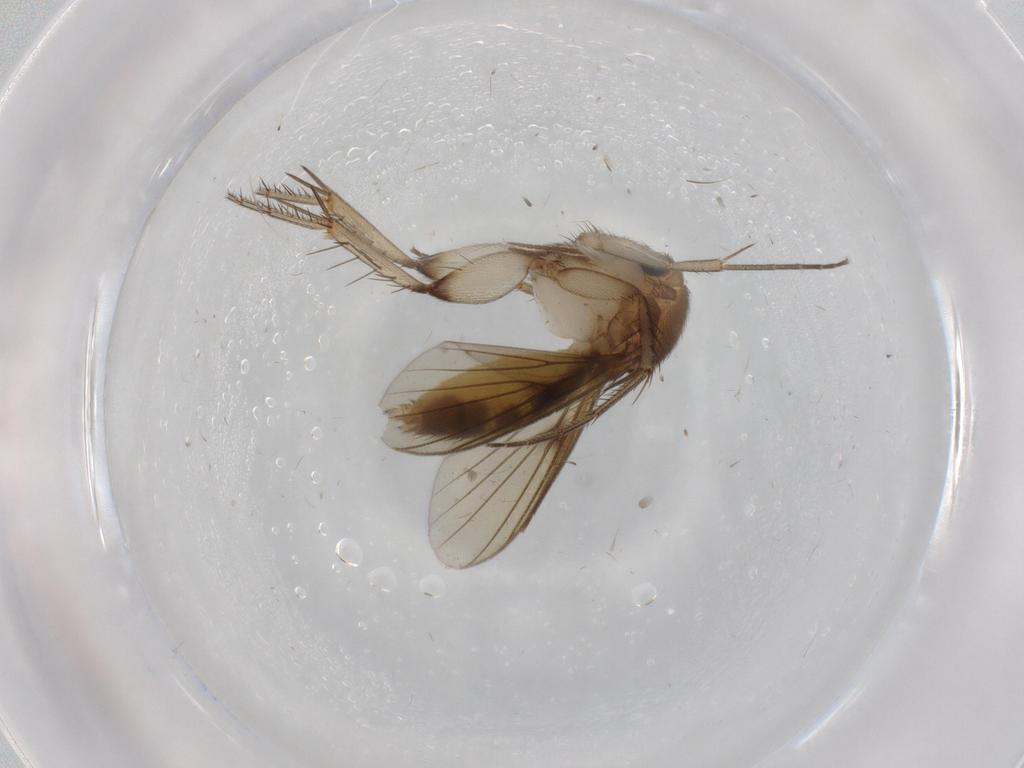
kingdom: Animalia
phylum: Arthropoda
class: Insecta
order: Diptera
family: Mycetophilidae
